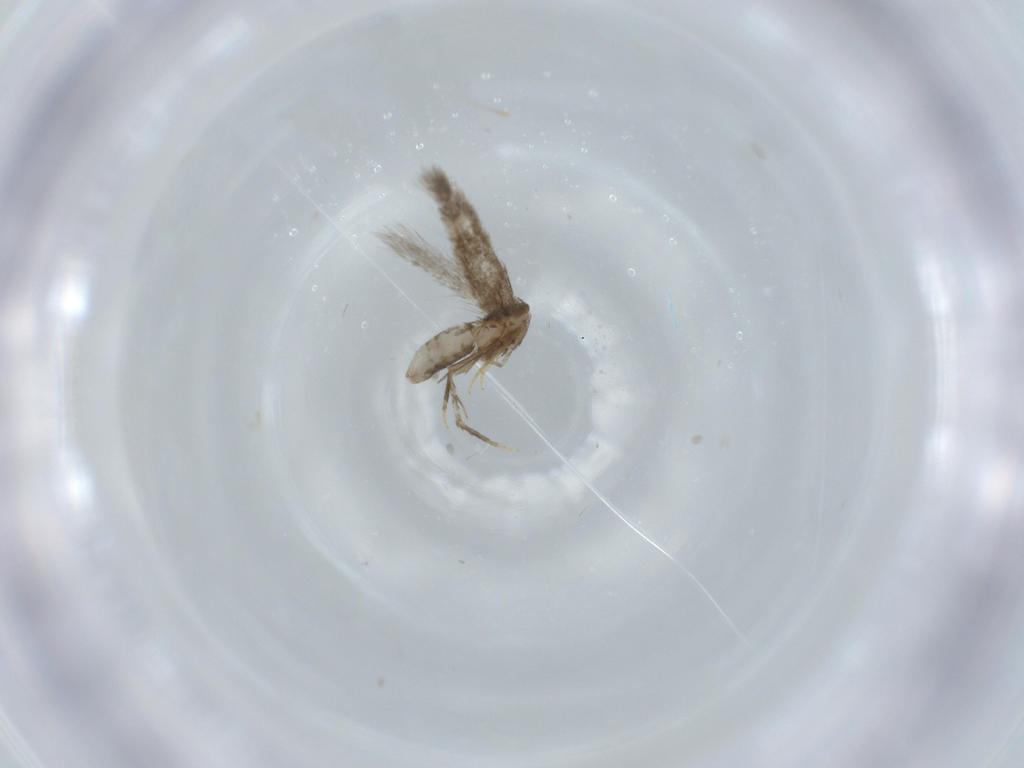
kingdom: Animalia
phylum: Arthropoda
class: Insecta
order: Lepidoptera
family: Nepticulidae
